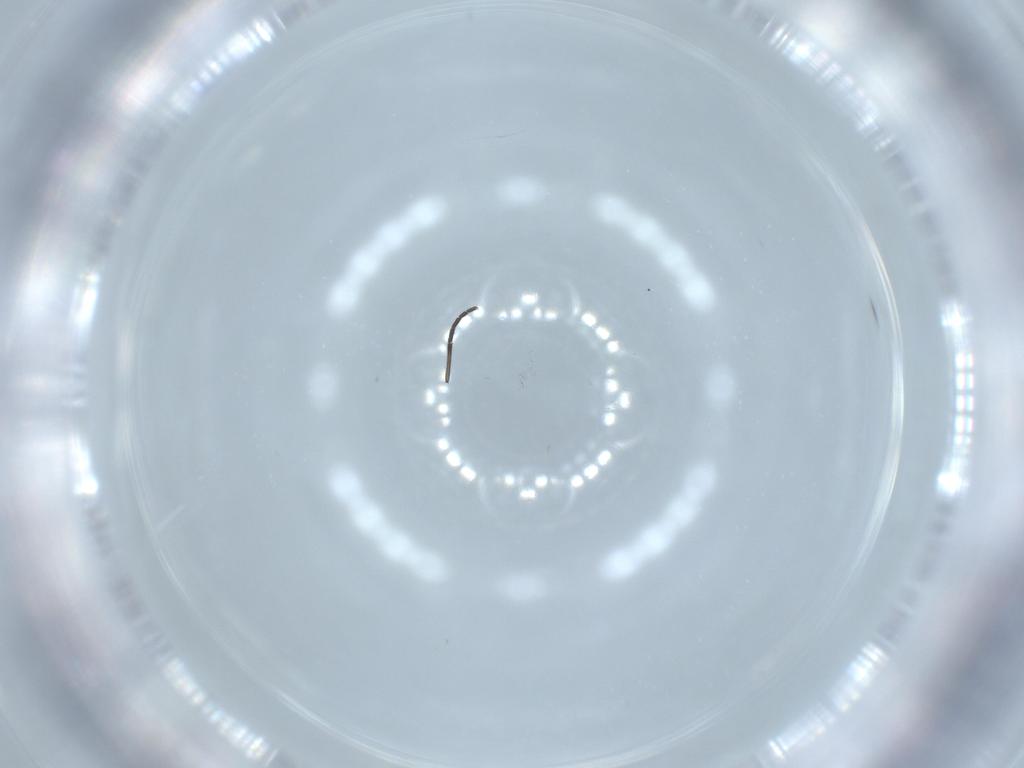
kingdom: Animalia
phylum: Arthropoda
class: Insecta
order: Diptera
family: Sciaridae
